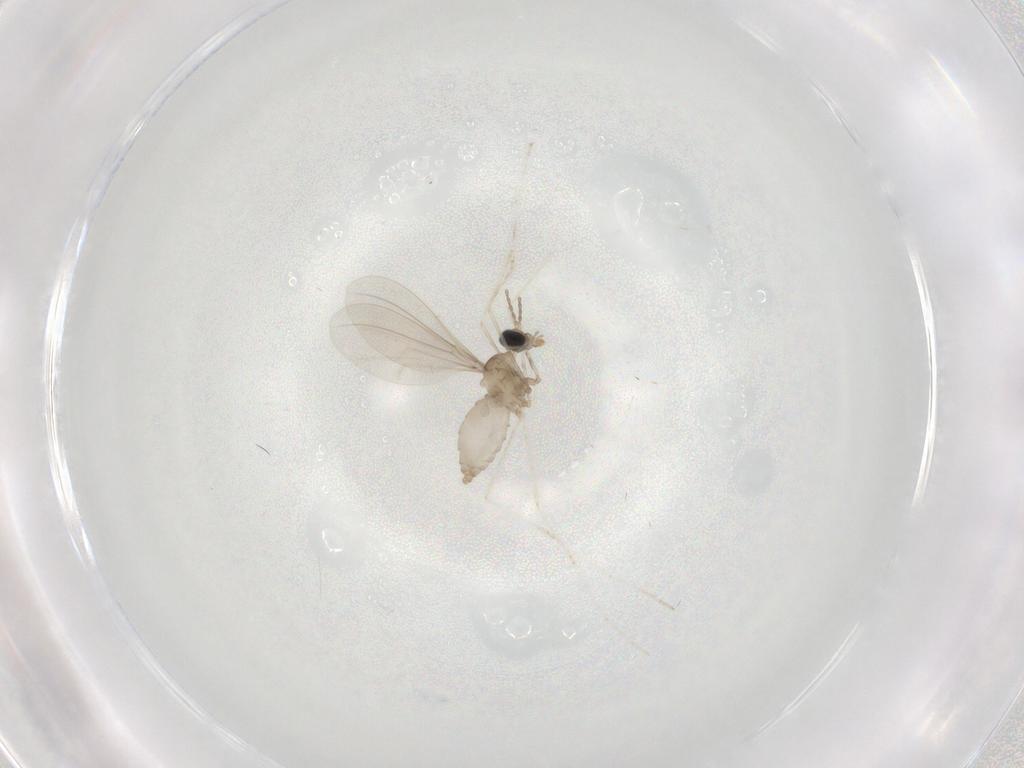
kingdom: Animalia
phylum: Arthropoda
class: Insecta
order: Diptera
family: Cecidomyiidae
